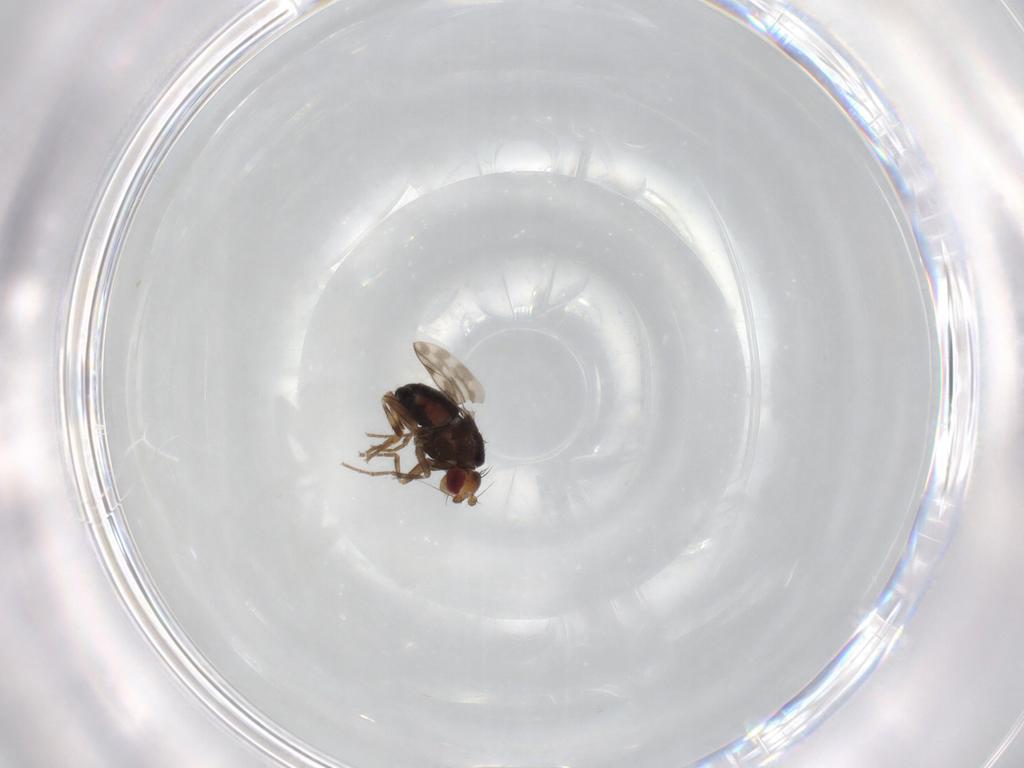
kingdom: Animalia
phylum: Arthropoda
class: Insecta
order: Diptera
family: Sphaeroceridae
